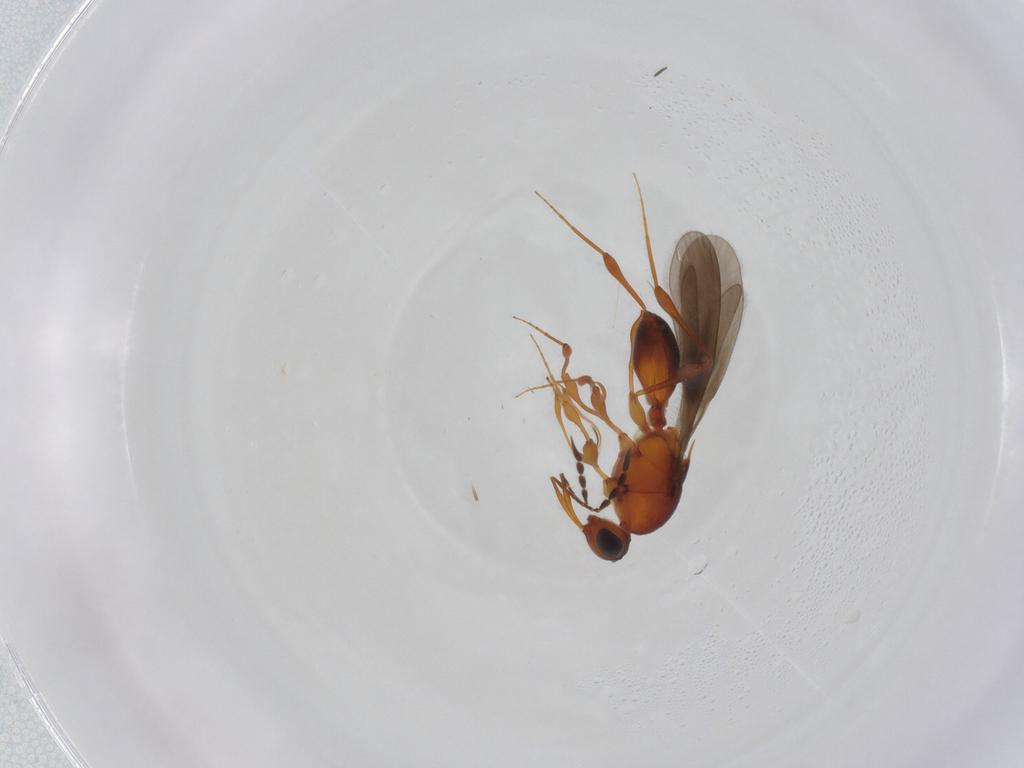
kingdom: Animalia
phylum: Arthropoda
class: Insecta
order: Hymenoptera
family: Platygastridae
